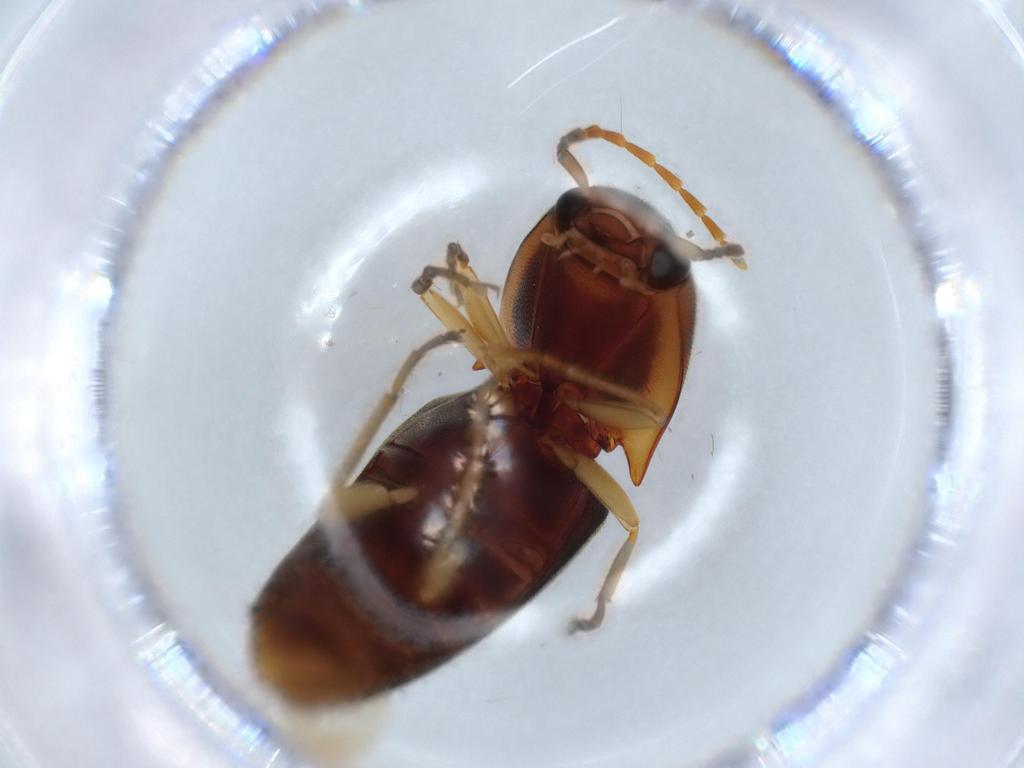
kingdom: Animalia
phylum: Arthropoda
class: Insecta
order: Coleoptera
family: Elateridae
